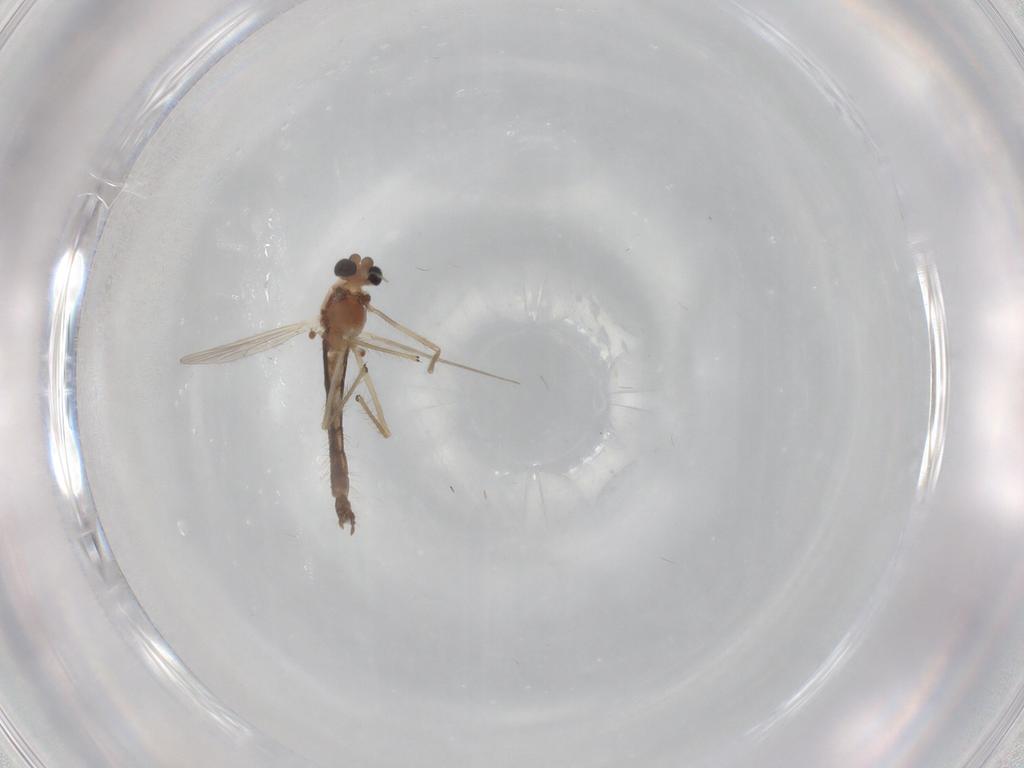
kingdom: Animalia
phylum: Arthropoda
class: Insecta
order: Diptera
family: Chironomidae
